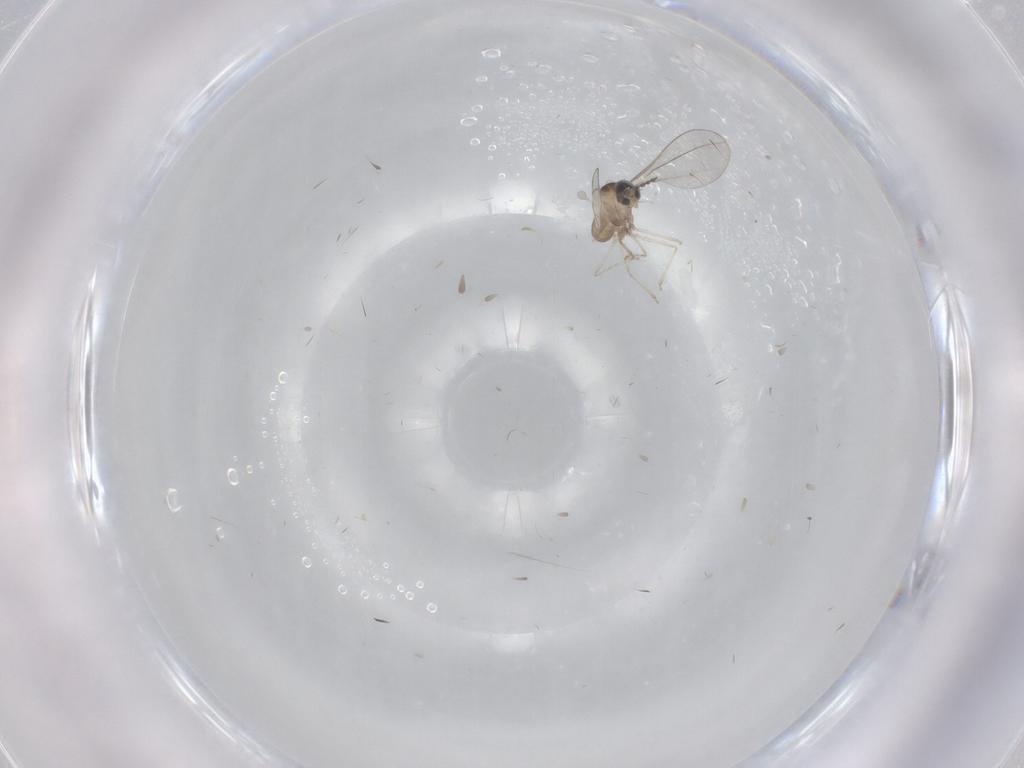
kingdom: Animalia
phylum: Arthropoda
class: Insecta
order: Diptera
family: Cecidomyiidae
